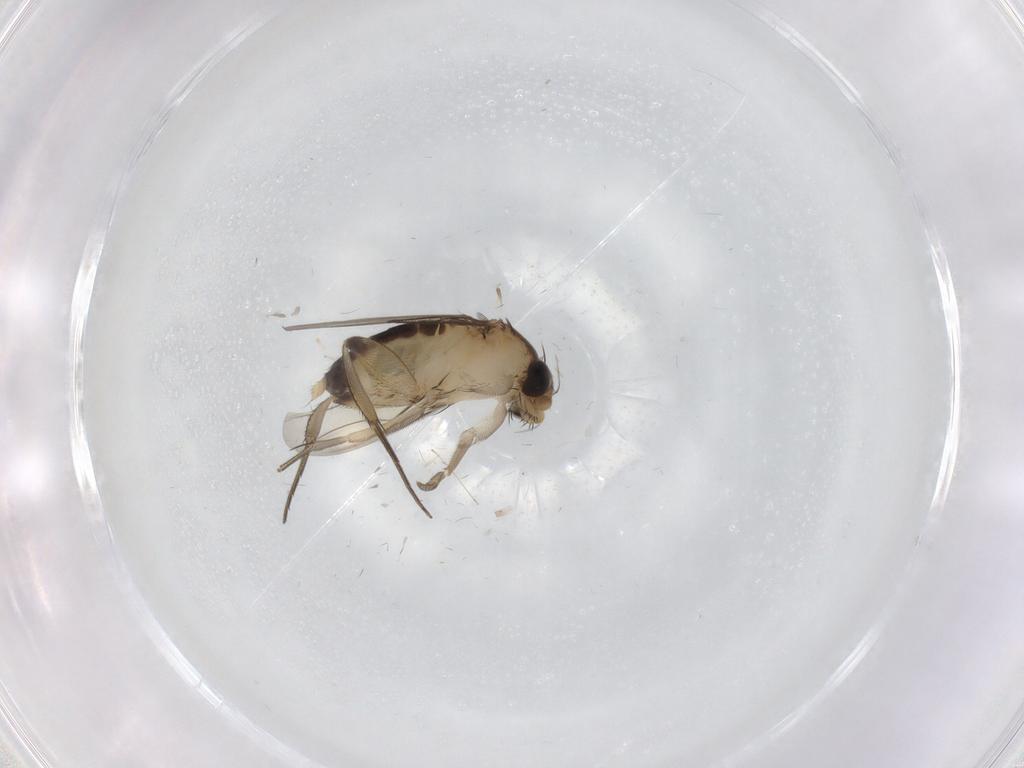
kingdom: Animalia
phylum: Arthropoda
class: Insecta
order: Diptera
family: Phoridae
